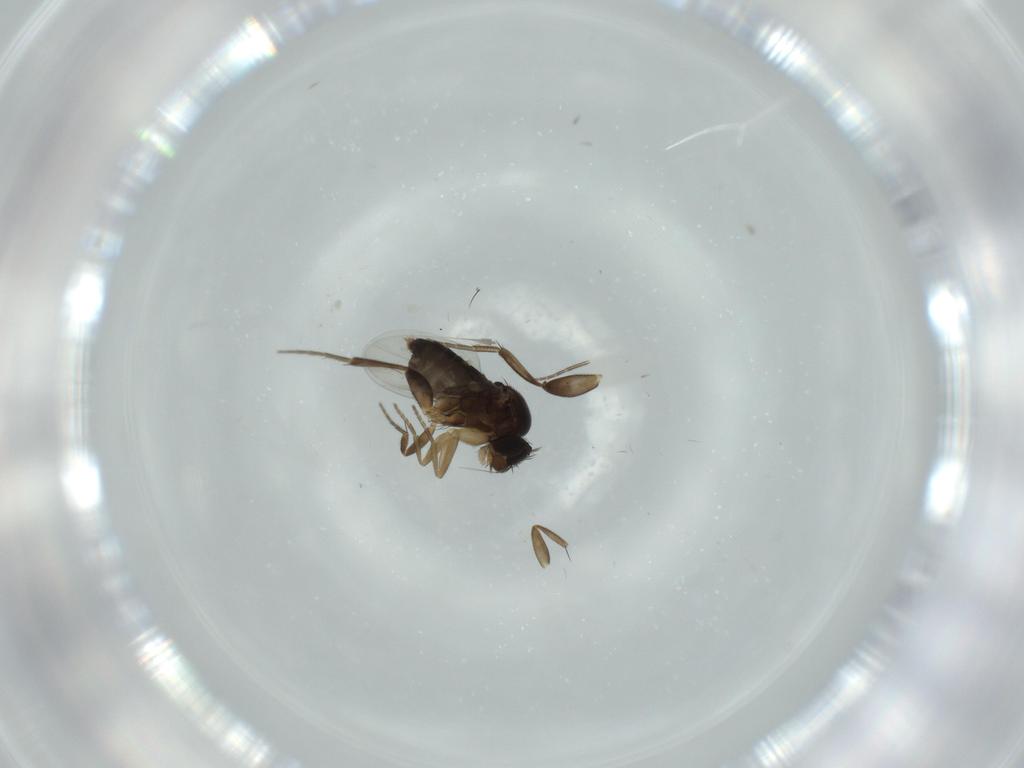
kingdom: Animalia
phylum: Arthropoda
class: Insecta
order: Diptera
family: Phoridae
